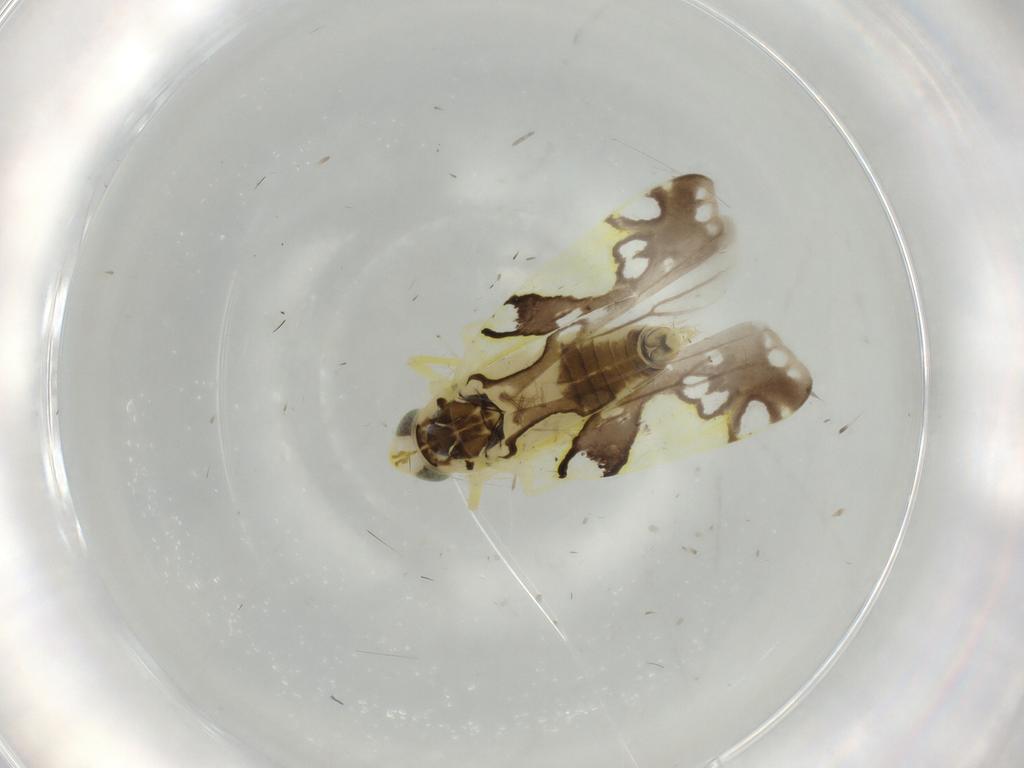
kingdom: Animalia
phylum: Arthropoda
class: Insecta
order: Hemiptera
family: Cicadellidae
